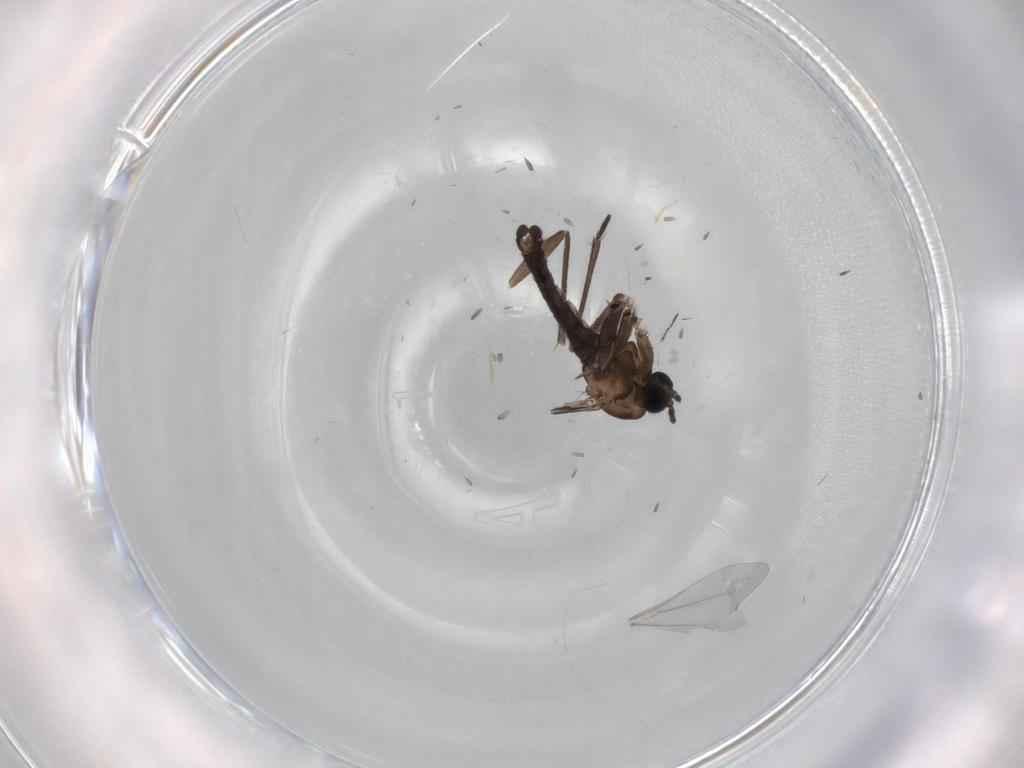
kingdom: Animalia
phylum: Arthropoda
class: Insecta
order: Diptera
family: Sciaridae
